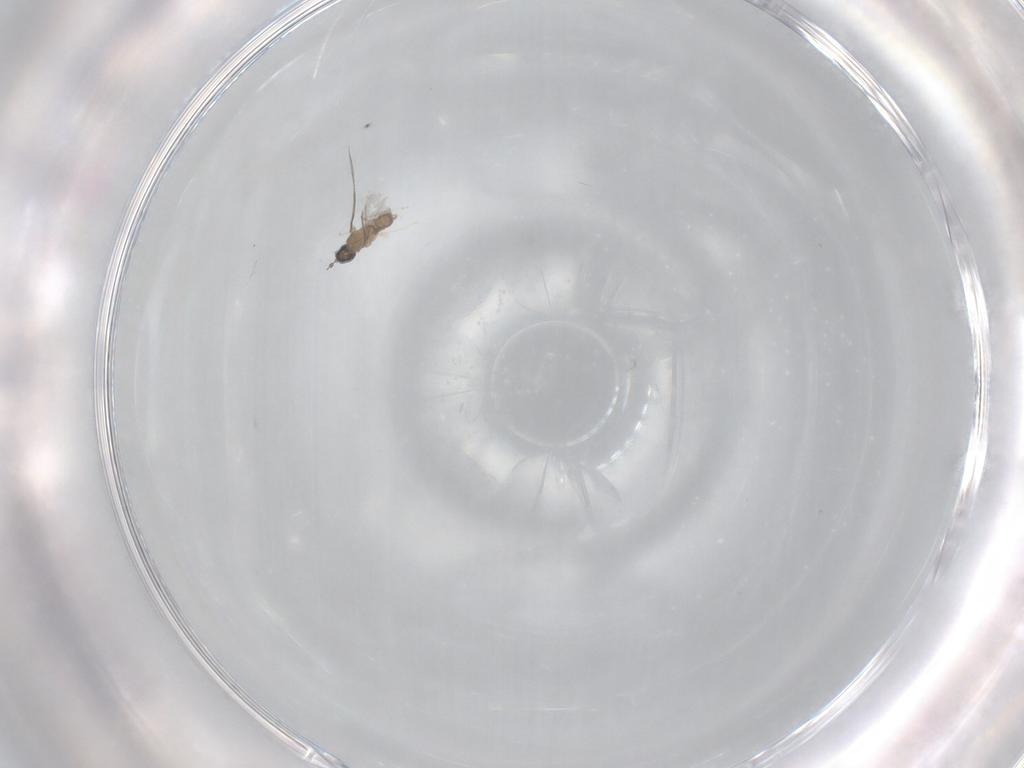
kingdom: Animalia
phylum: Arthropoda
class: Insecta
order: Diptera
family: Cecidomyiidae
